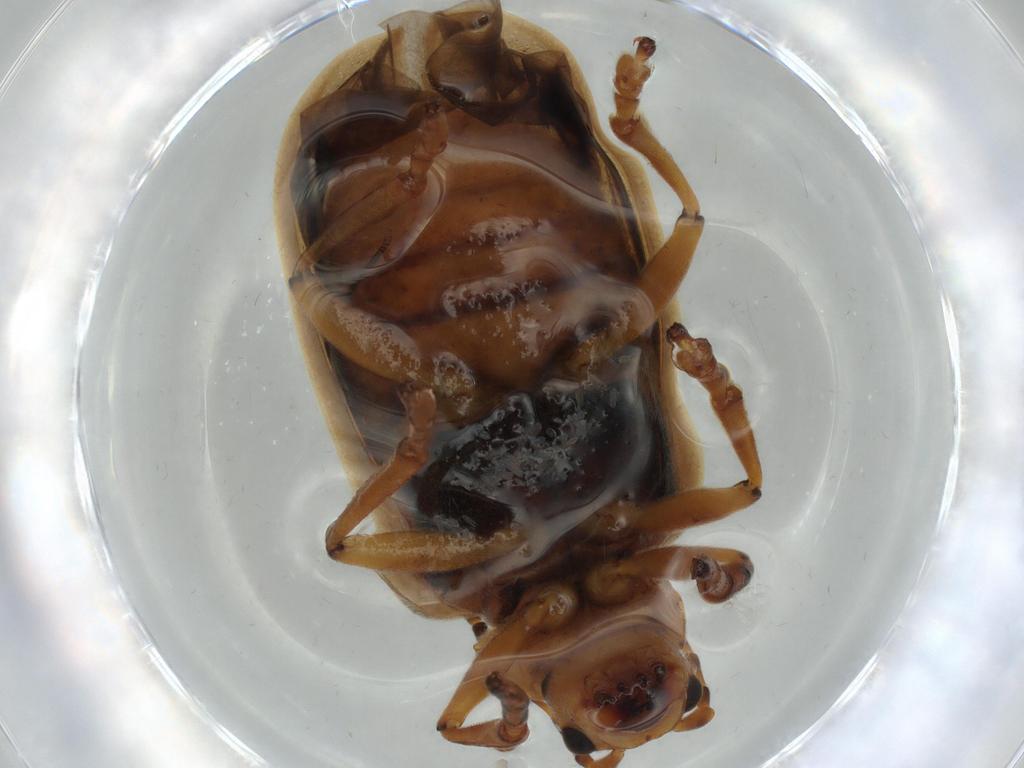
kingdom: Animalia
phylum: Arthropoda
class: Insecta
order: Coleoptera
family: Chrysomelidae
